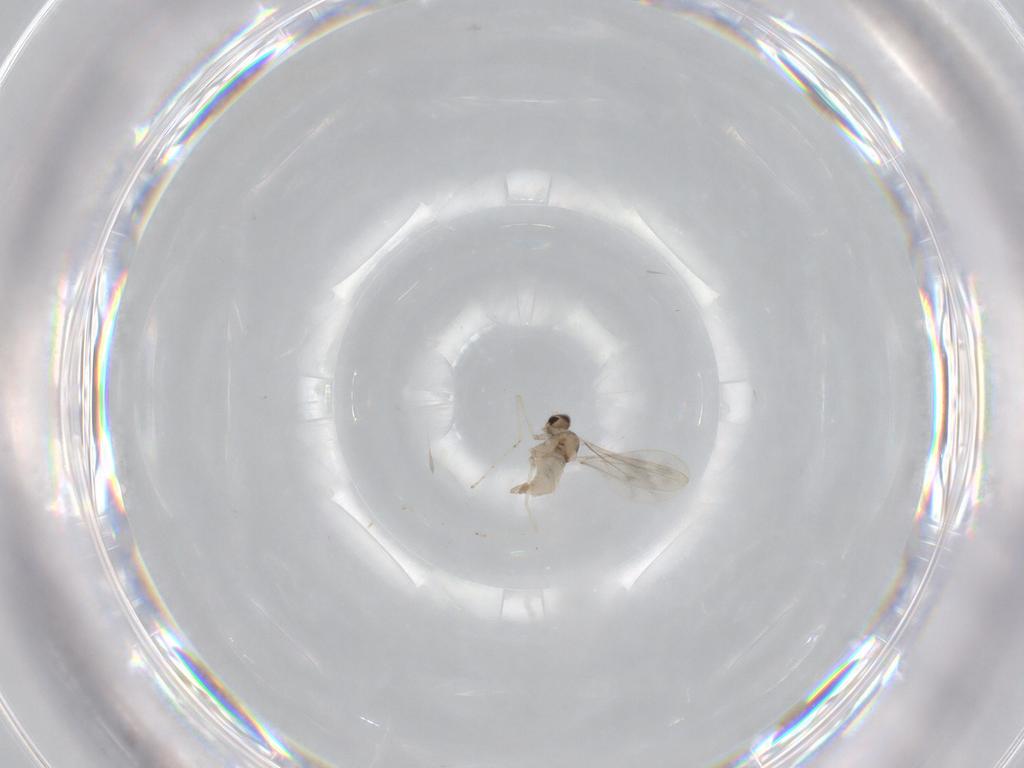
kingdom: Animalia
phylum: Arthropoda
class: Insecta
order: Diptera
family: Cecidomyiidae
